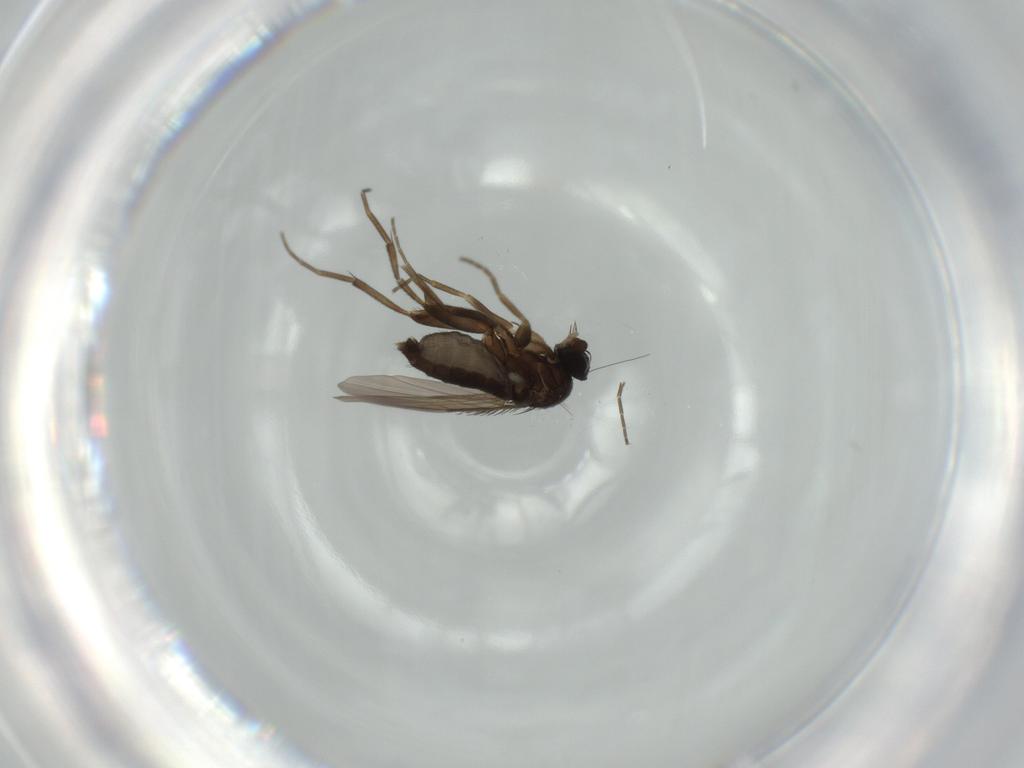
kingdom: Animalia
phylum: Arthropoda
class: Insecta
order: Diptera
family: Phoridae
